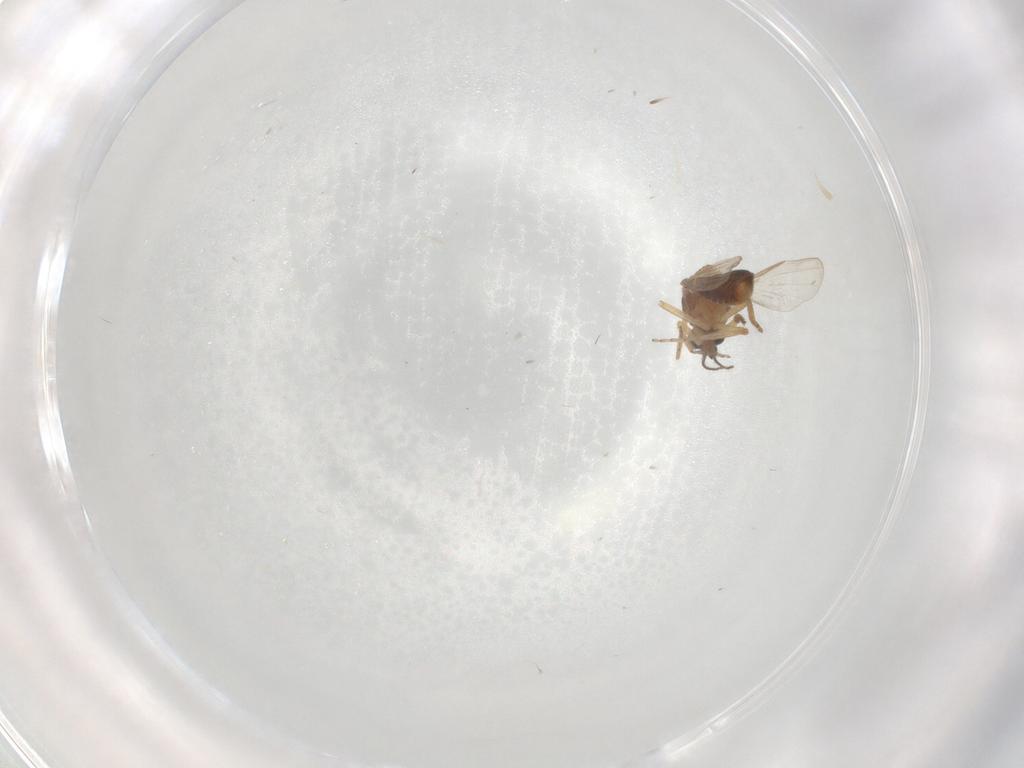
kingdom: Animalia
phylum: Arthropoda
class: Insecta
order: Diptera
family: Ceratopogonidae
